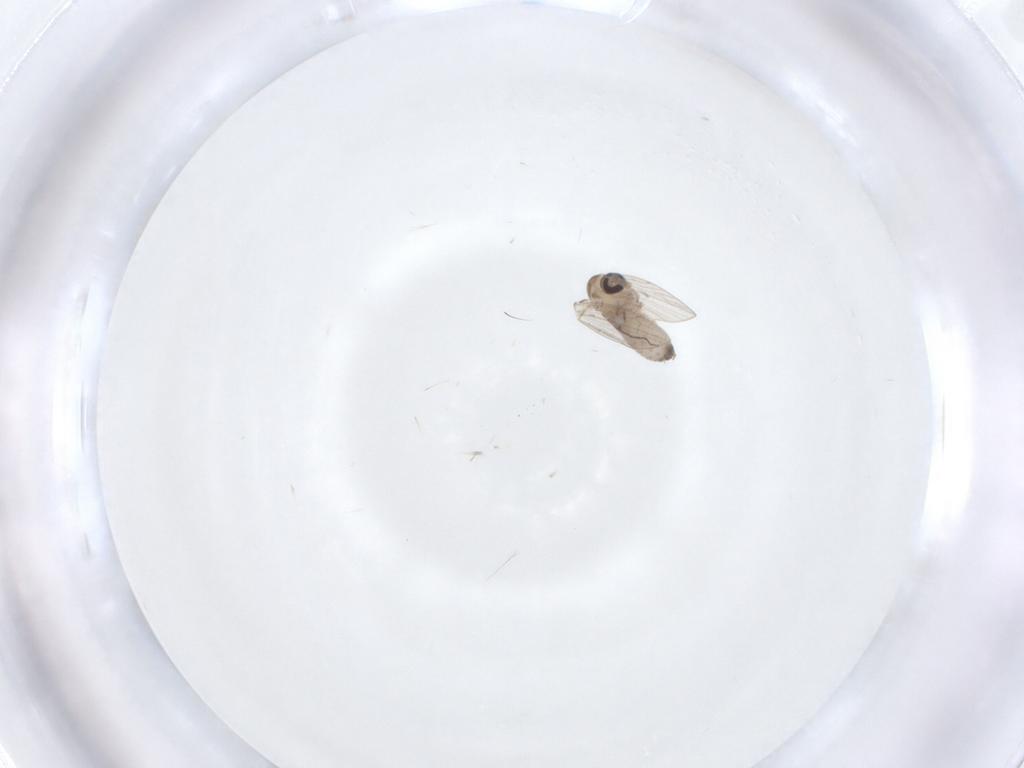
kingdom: Animalia
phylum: Arthropoda
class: Insecta
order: Diptera
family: Psychodidae
